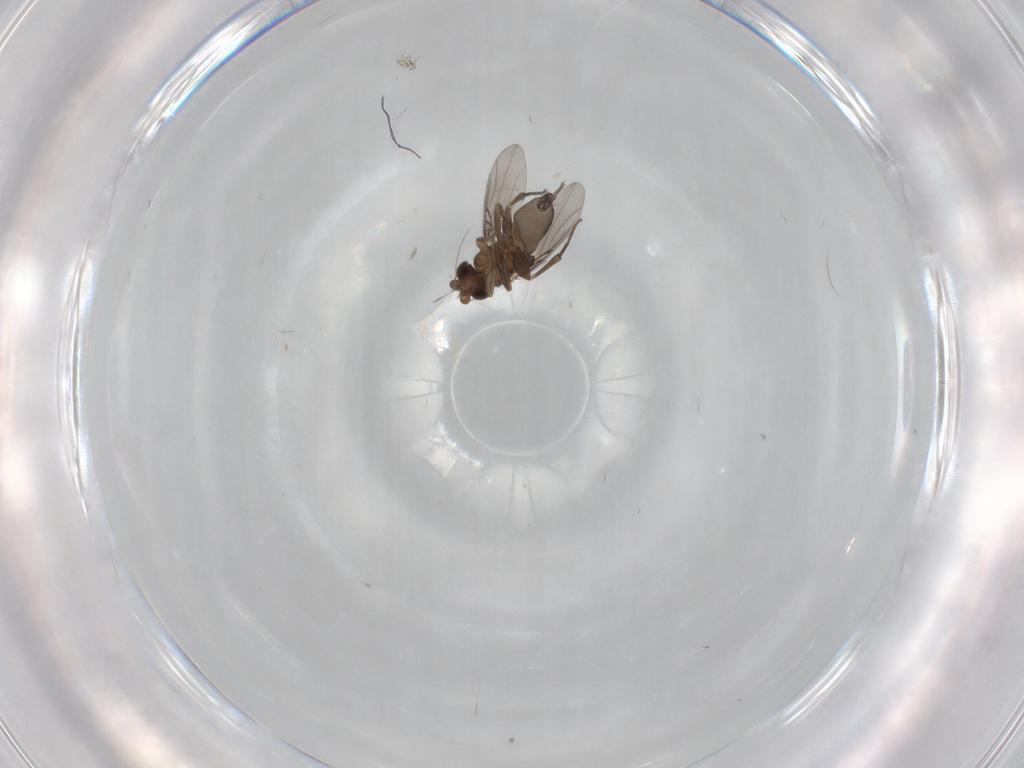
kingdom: Animalia
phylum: Arthropoda
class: Insecta
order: Diptera
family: Phoridae
